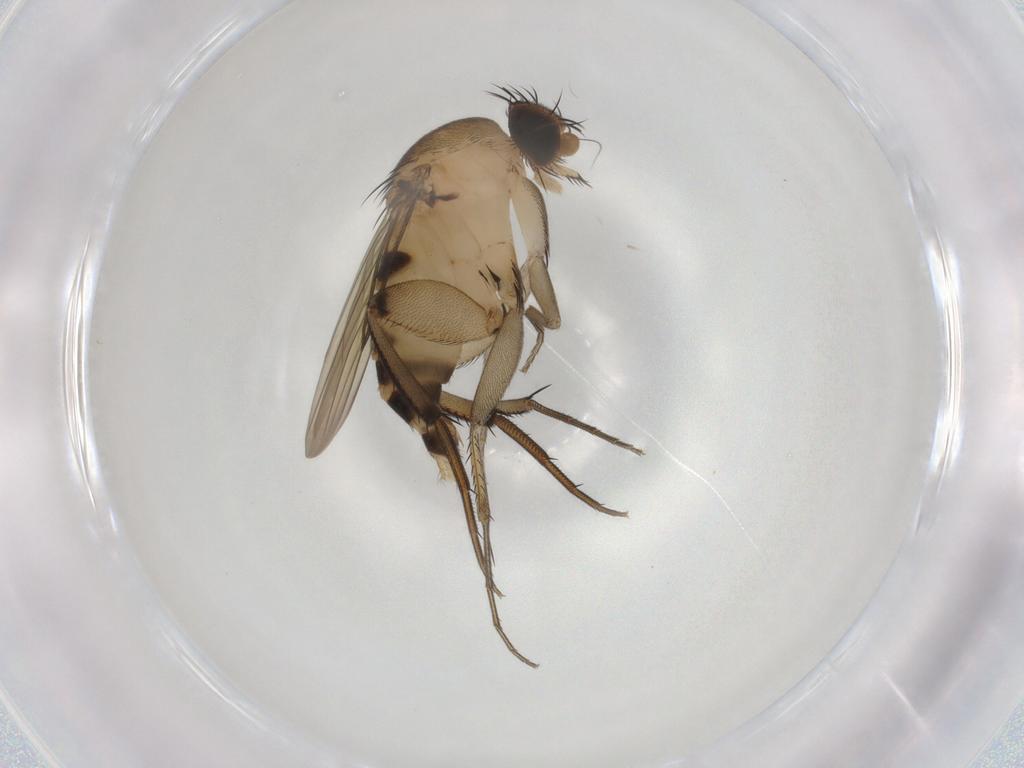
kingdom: Animalia
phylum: Arthropoda
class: Insecta
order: Diptera
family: Phoridae
